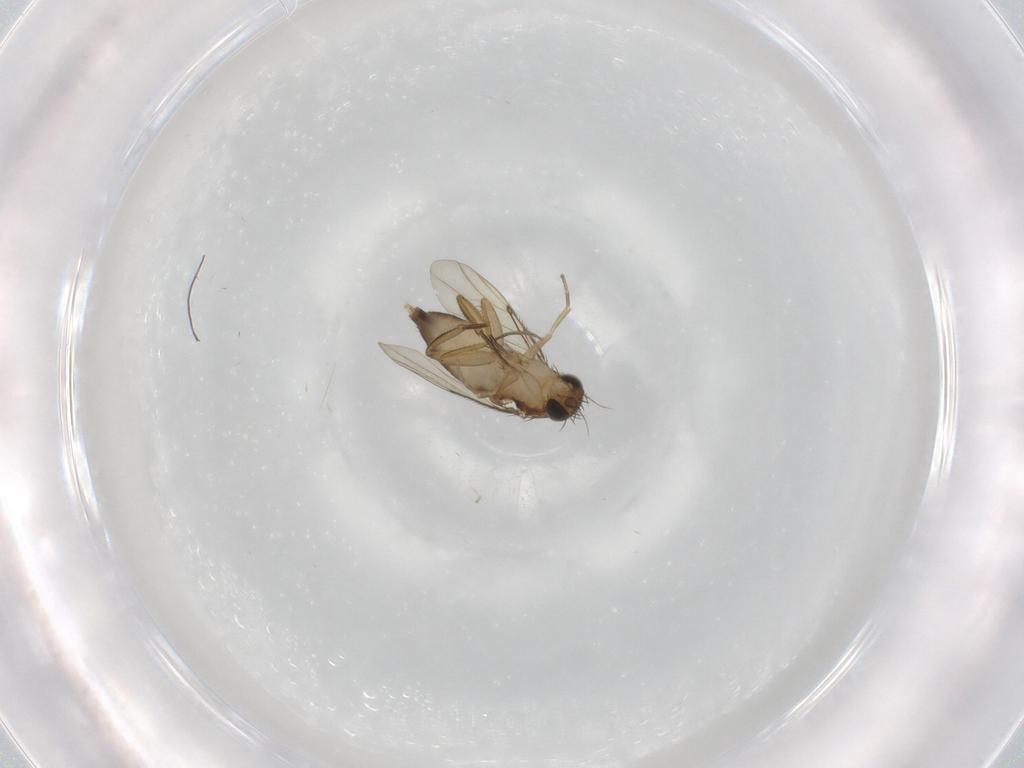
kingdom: Animalia
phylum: Arthropoda
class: Insecta
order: Diptera
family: Phoridae
